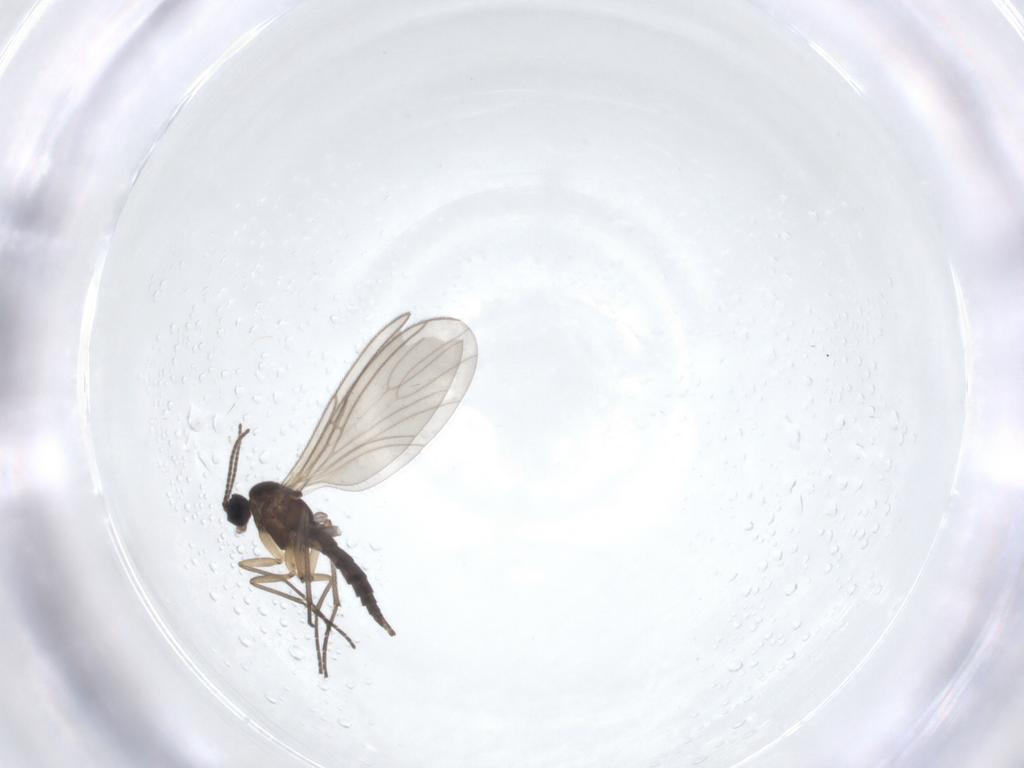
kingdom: Animalia
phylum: Arthropoda
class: Insecta
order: Diptera
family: Sciaridae
